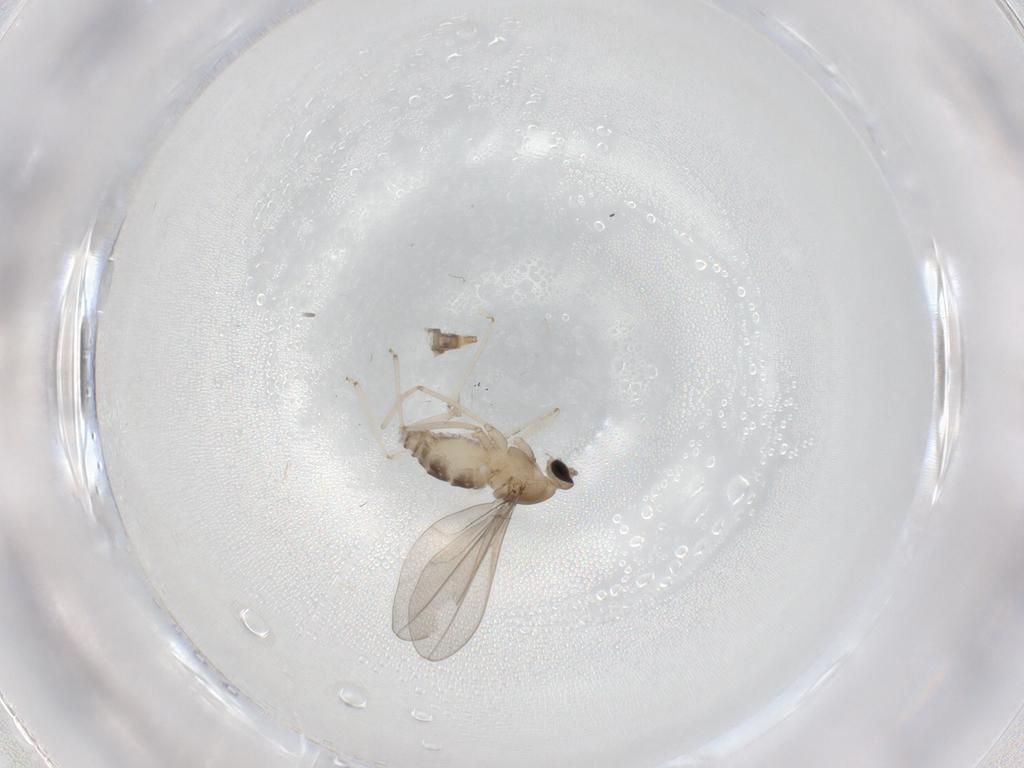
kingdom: Animalia
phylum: Arthropoda
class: Insecta
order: Diptera
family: Cecidomyiidae
